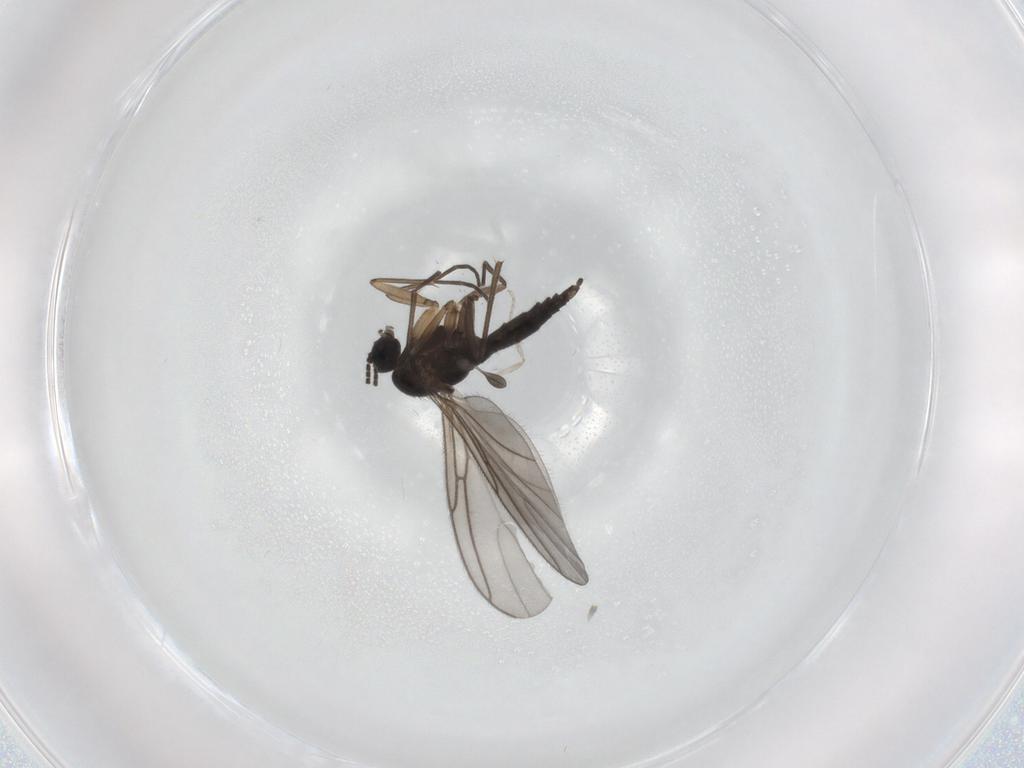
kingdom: Animalia
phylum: Arthropoda
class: Insecta
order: Diptera
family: Sciaridae
